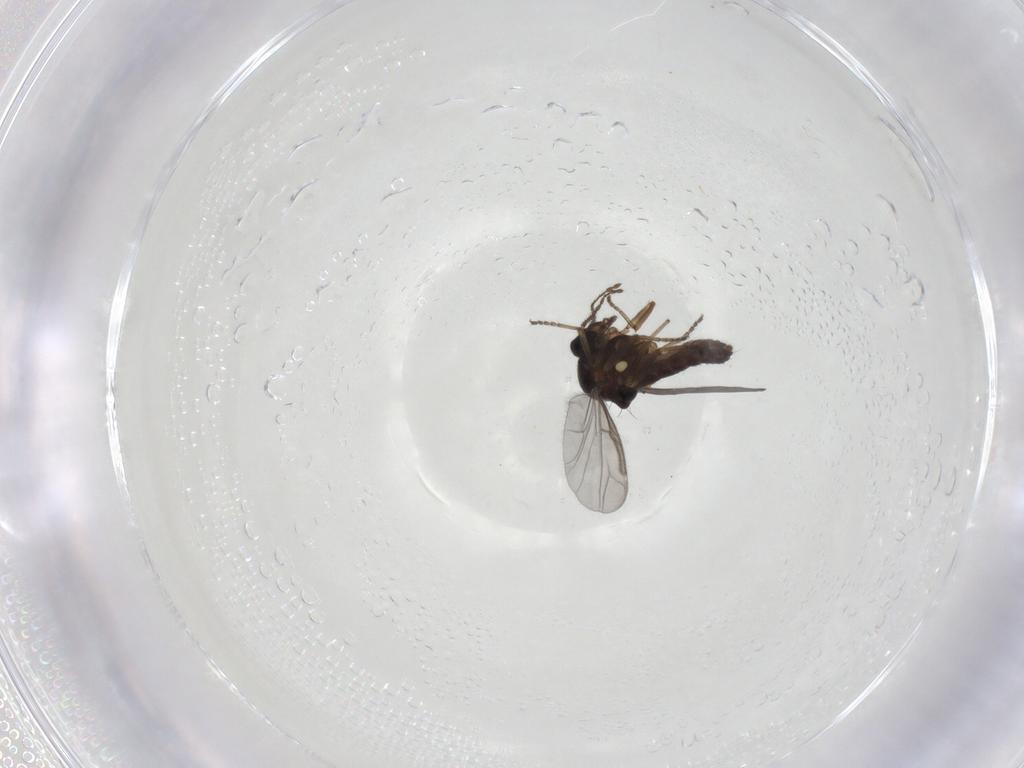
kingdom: Animalia
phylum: Arthropoda
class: Insecta
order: Diptera
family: Ceratopogonidae
